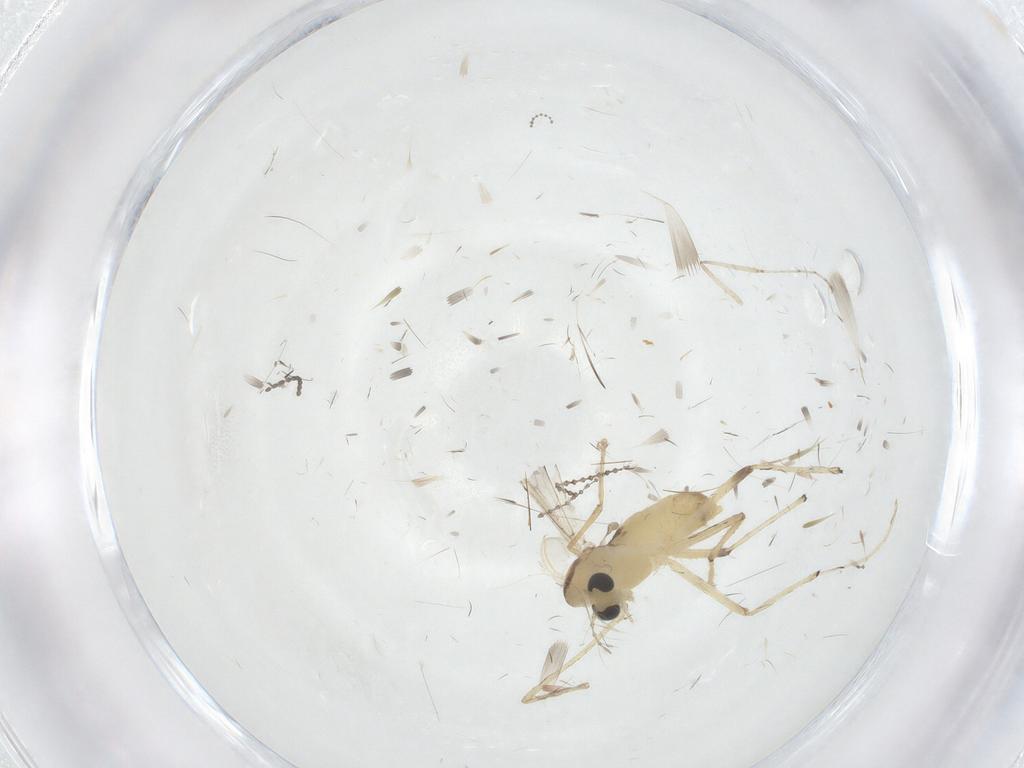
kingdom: Animalia
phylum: Arthropoda
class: Insecta
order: Diptera
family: Chironomidae
